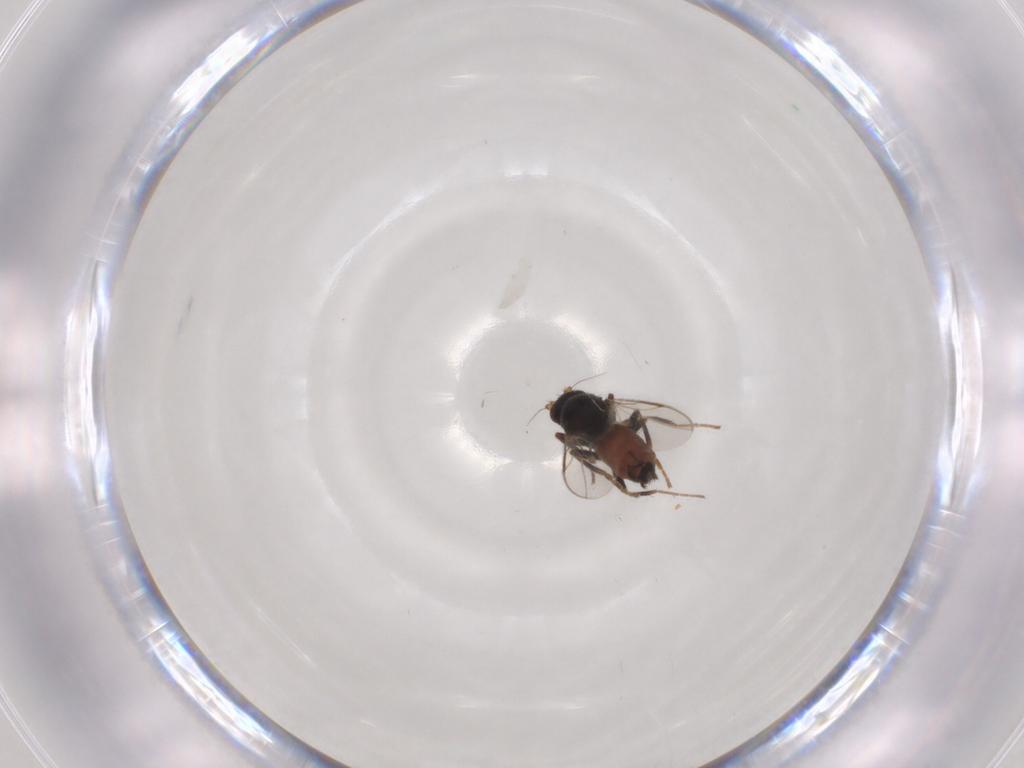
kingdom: Animalia
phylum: Arthropoda
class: Insecta
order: Diptera
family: Sphaeroceridae
